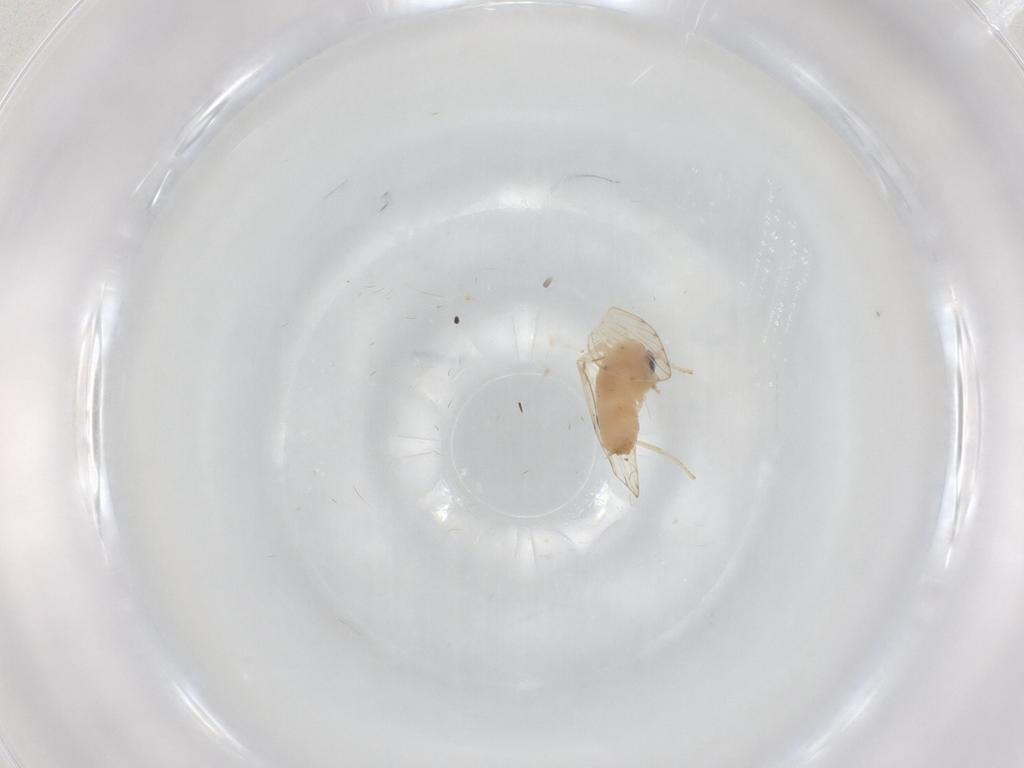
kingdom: Animalia
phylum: Arthropoda
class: Insecta
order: Diptera
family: Psychodidae
